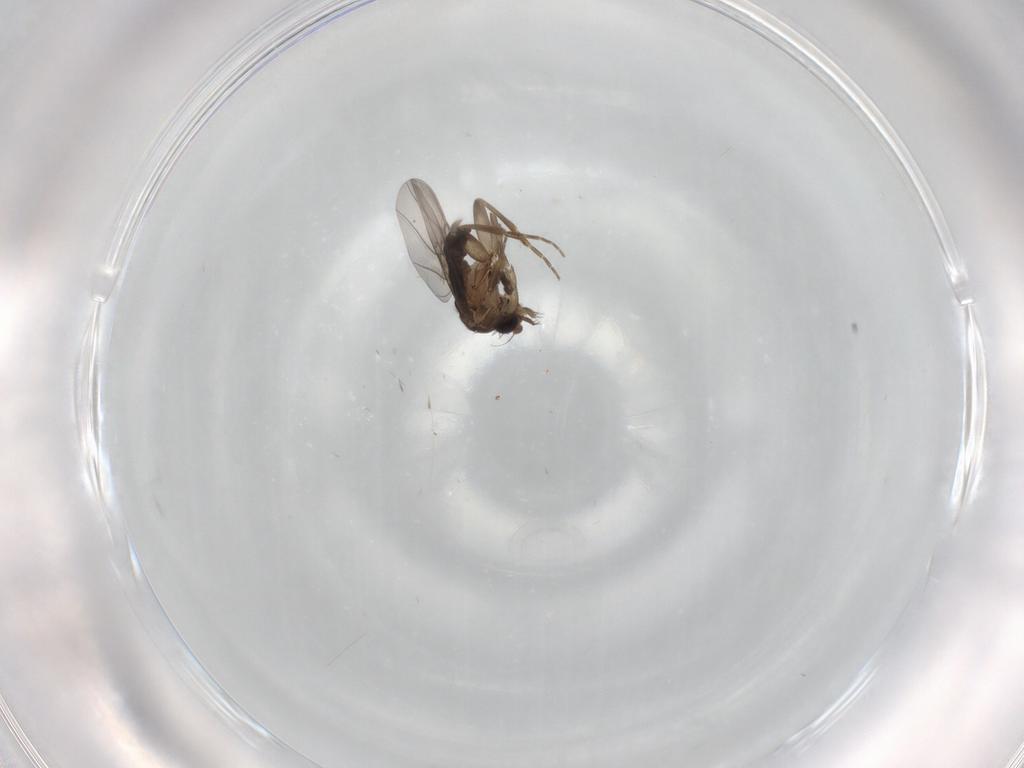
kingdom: Animalia
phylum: Arthropoda
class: Insecta
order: Diptera
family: Cecidomyiidae
